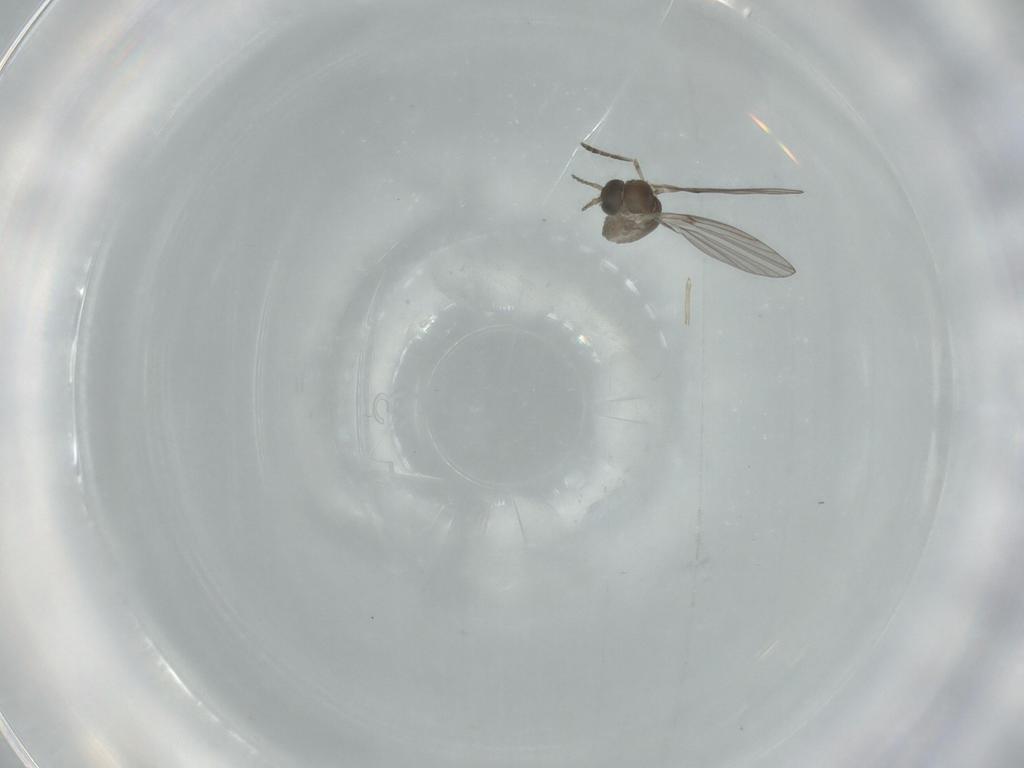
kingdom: Animalia
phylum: Arthropoda
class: Insecta
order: Diptera
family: Psychodidae
